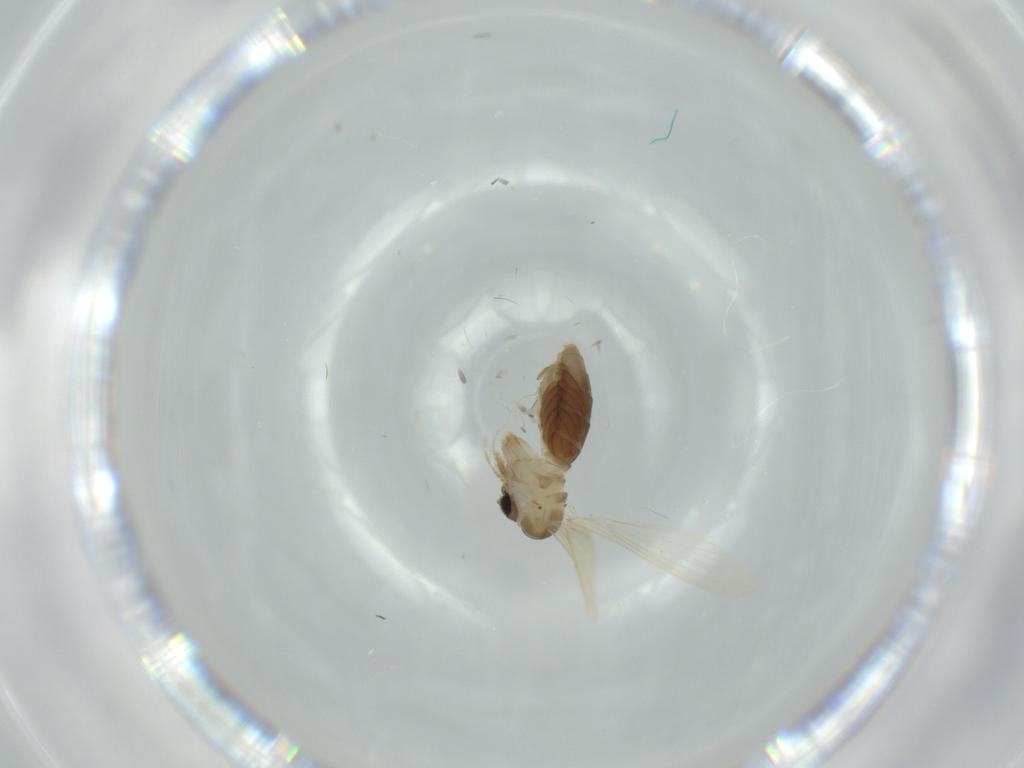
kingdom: Animalia
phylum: Arthropoda
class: Insecta
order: Diptera
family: Psychodidae
